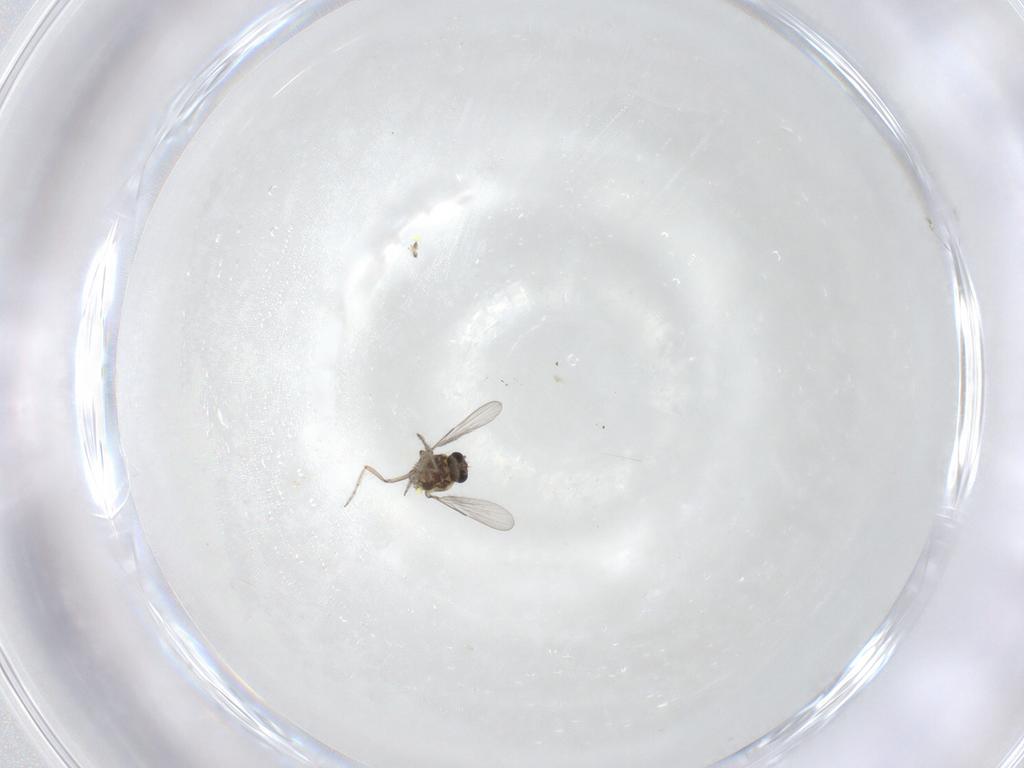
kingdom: Animalia
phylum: Arthropoda
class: Insecta
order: Diptera
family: Ceratopogonidae
